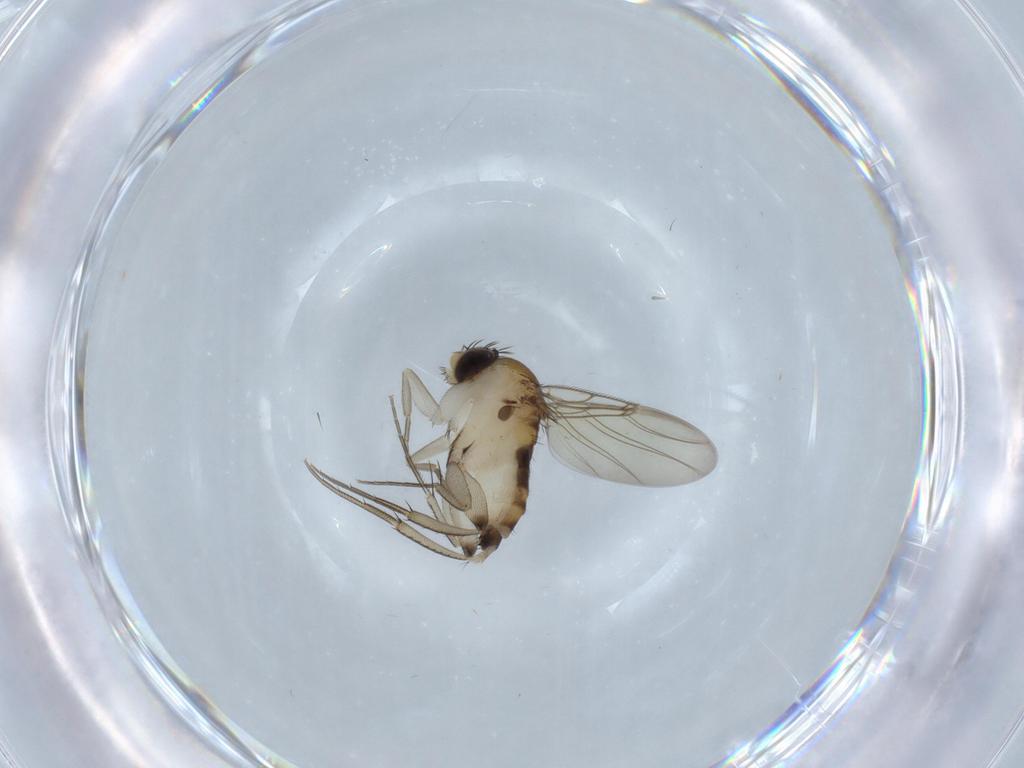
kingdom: Animalia
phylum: Arthropoda
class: Insecta
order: Diptera
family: Phoridae
